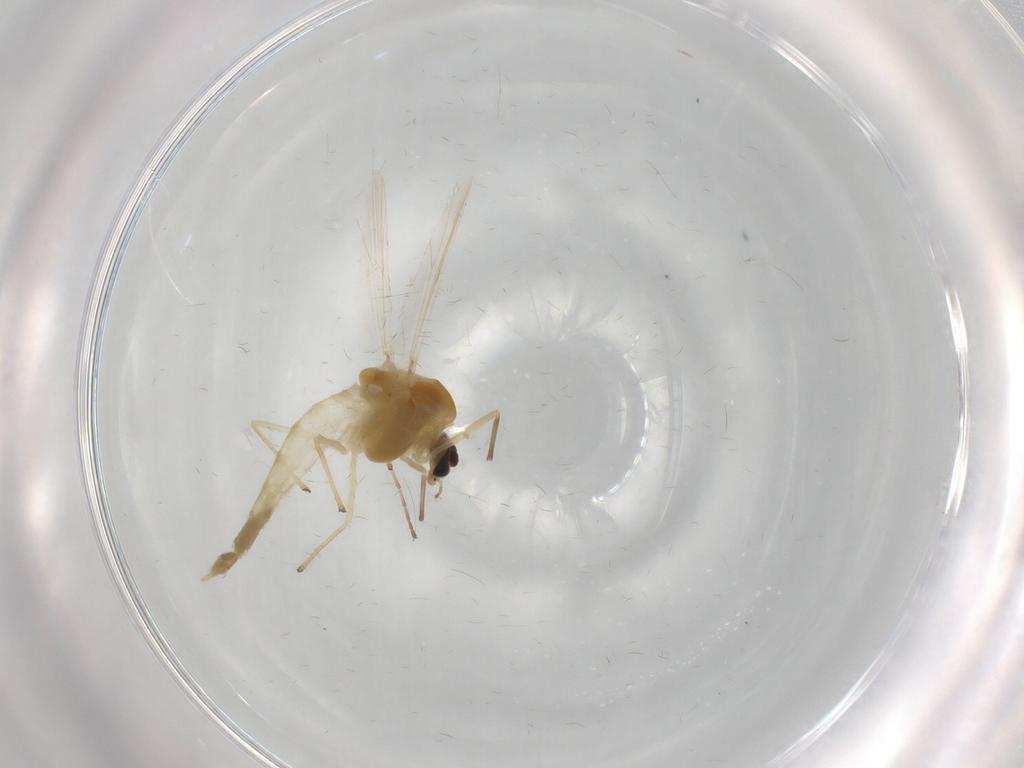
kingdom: Animalia
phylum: Arthropoda
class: Insecta
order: Diptera
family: Chironomidae
